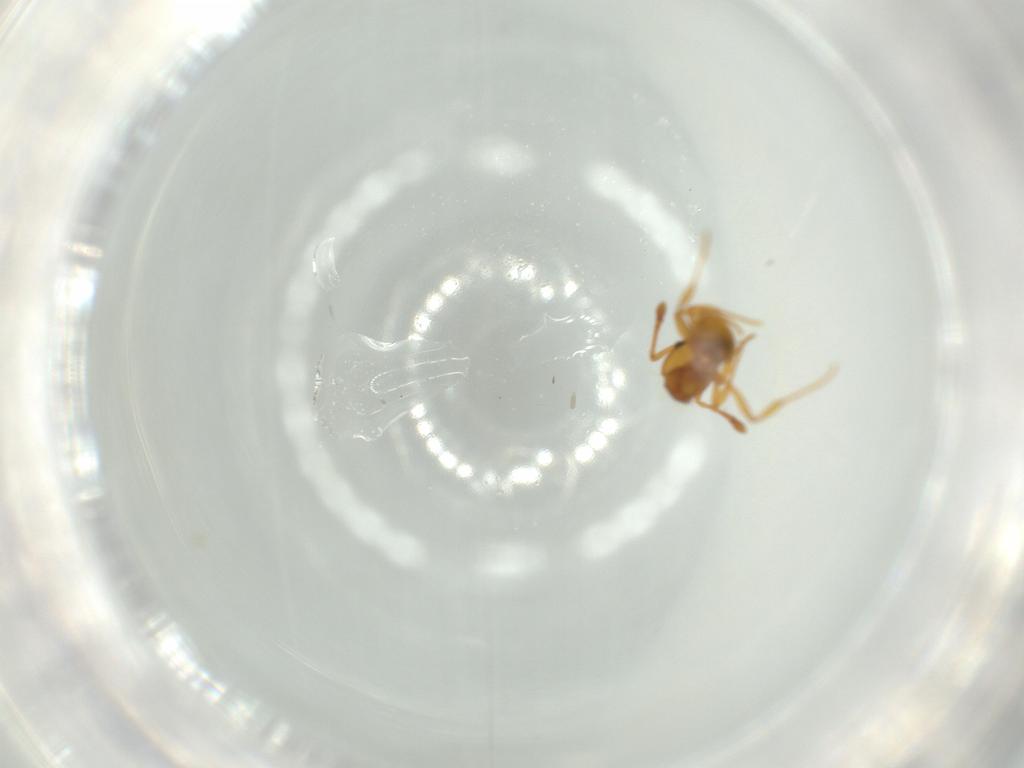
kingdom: Animalia
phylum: Arthropoda
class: Insecta
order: Hymenoptera
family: Formicidae
